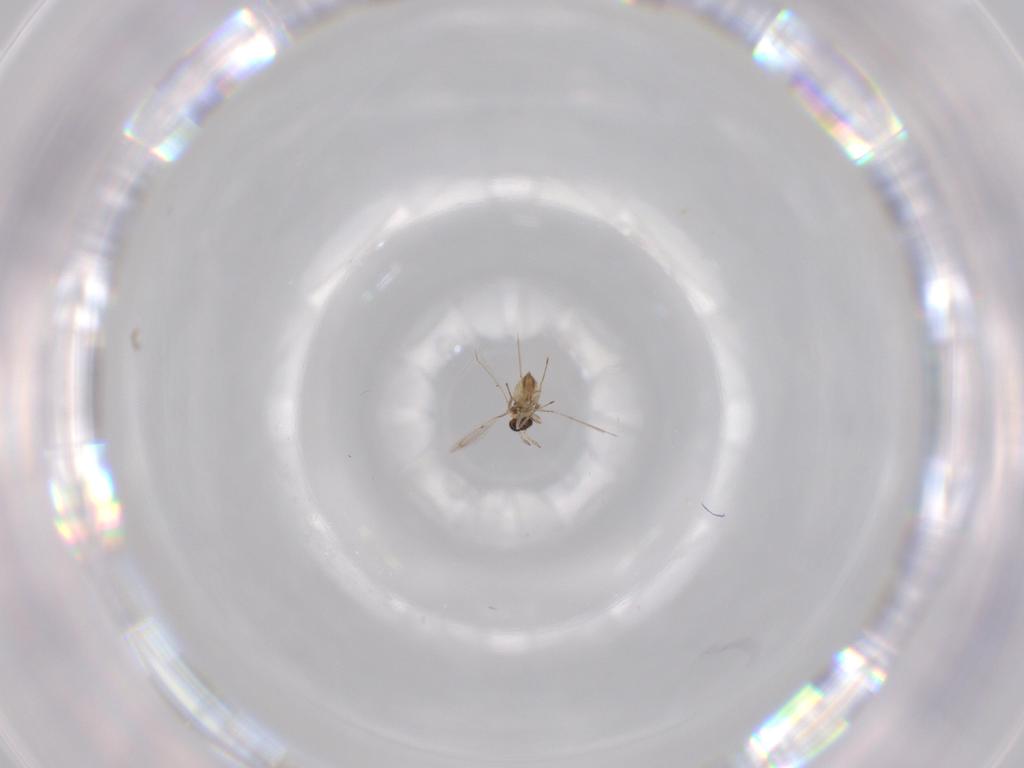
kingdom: Animalia
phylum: Arthropoda
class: Insecta
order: Hymenoptera
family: Trichogrammatidae
